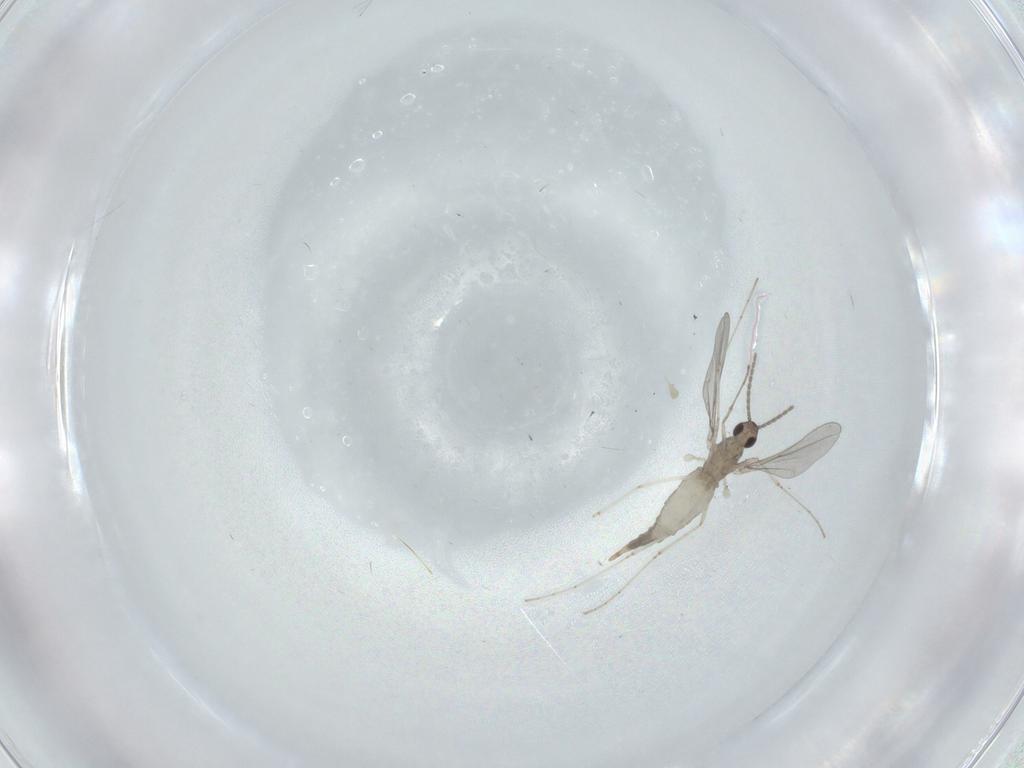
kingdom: Animalia
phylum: Arthropoda
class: Insecta
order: Diptera
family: Cecidomyiidae
